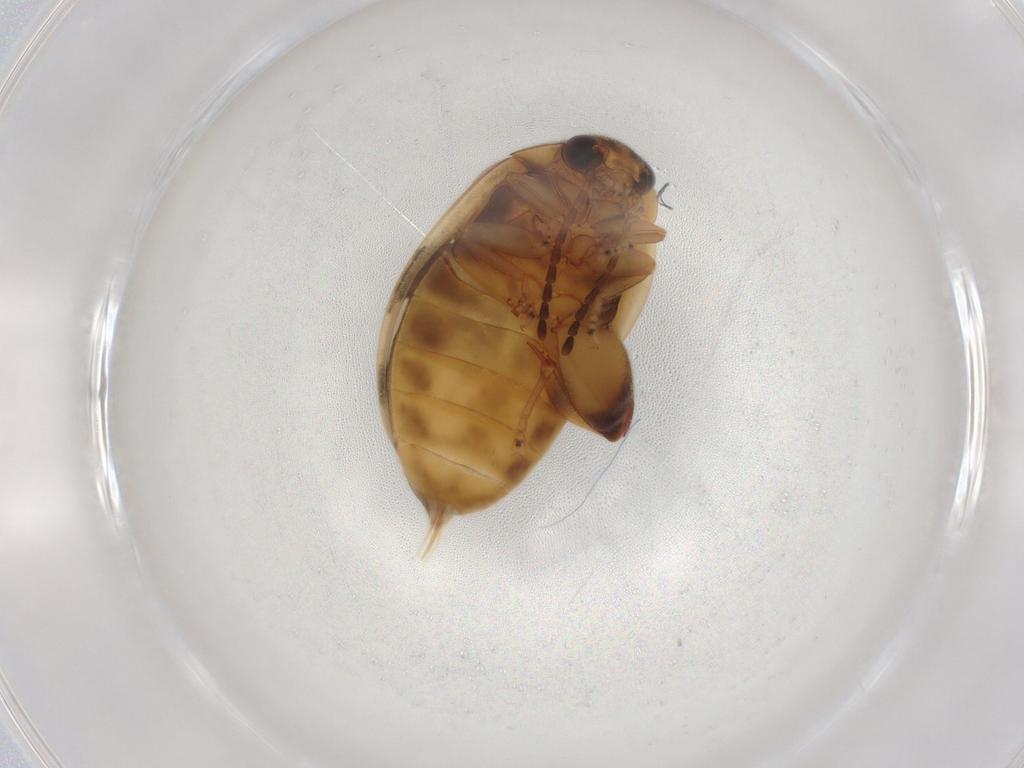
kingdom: Animalia
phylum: Arthropoda
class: Insecta
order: Coleoptera
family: Scirtidae
